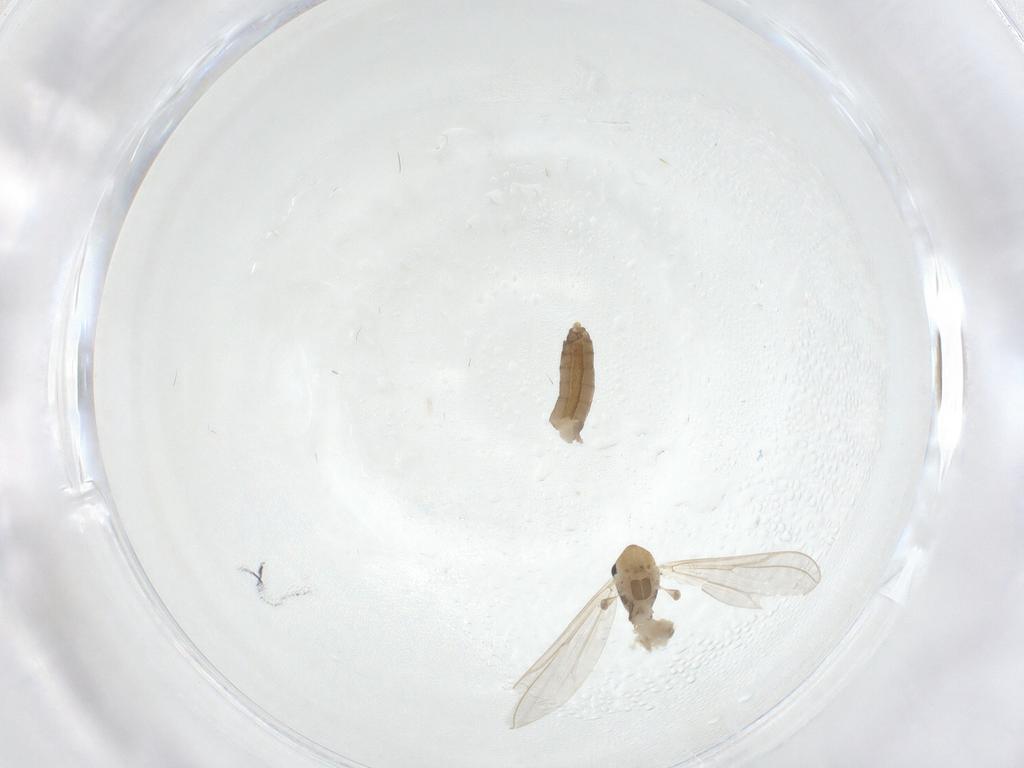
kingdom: Animalia
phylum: Arthropoda
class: Insecta
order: Diptera
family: Chironomidae
